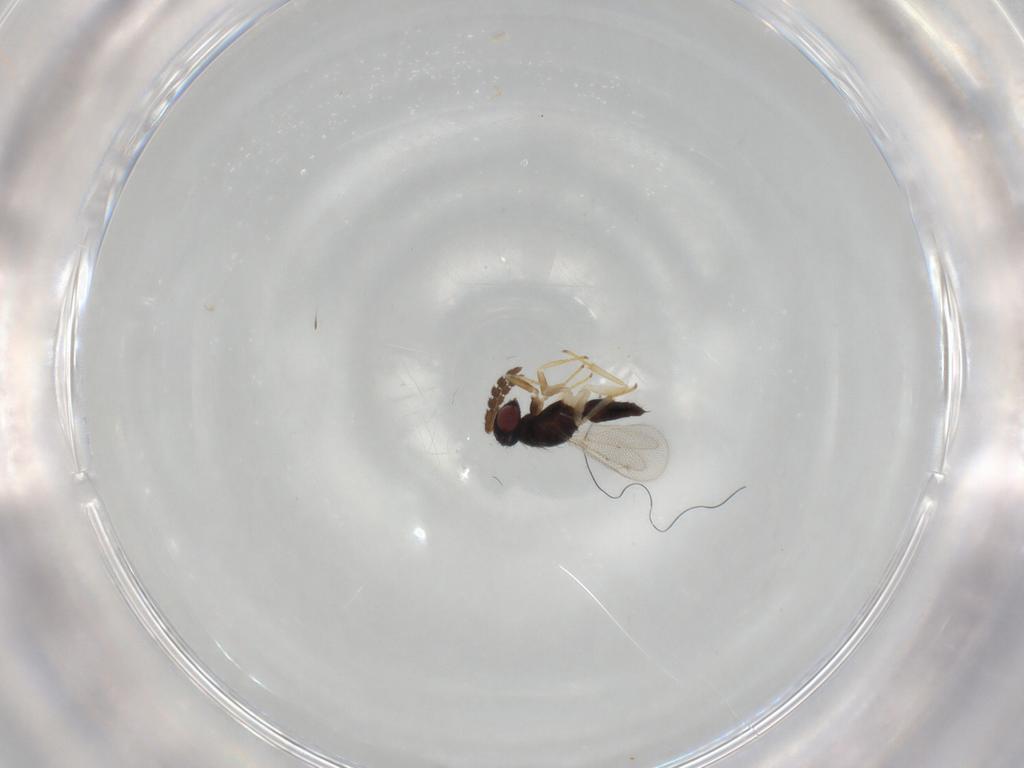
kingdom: Animalia
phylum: Arthropoda
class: Insecta
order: Hymenoptera
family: Eulophidae
